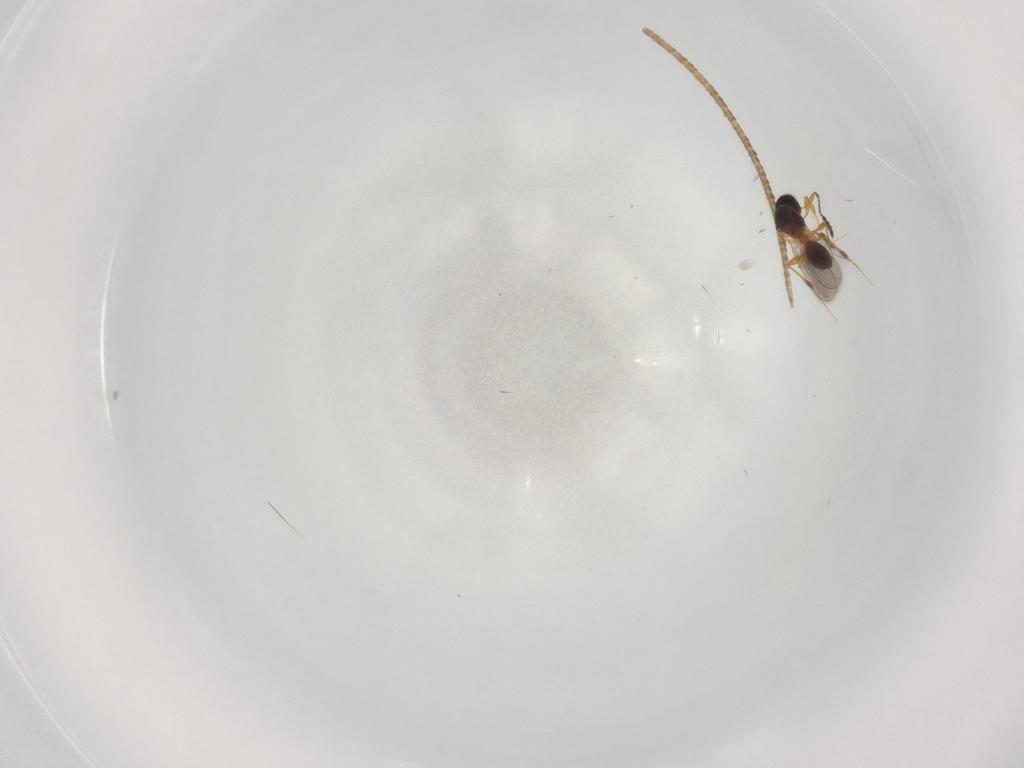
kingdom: Animalia
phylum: Arthropoda
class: Insecta
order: Hymenoptera
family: Platygastridae
